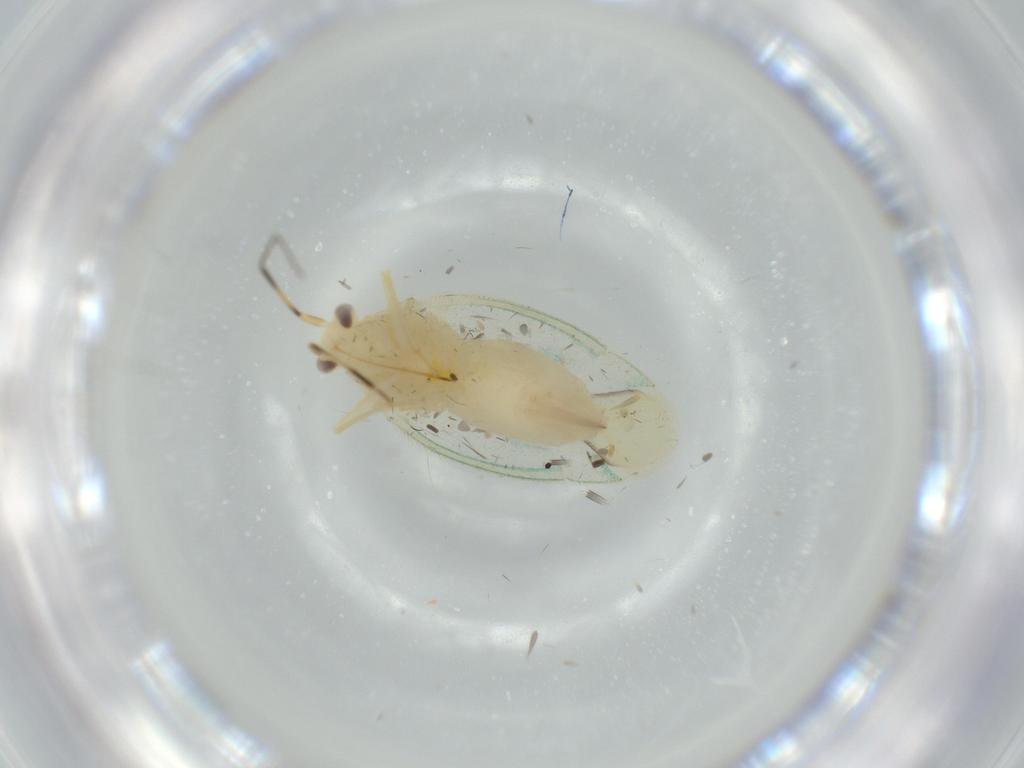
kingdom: Animalia
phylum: Arthropoda
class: Insecta
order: Hemiptera
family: Miridae
